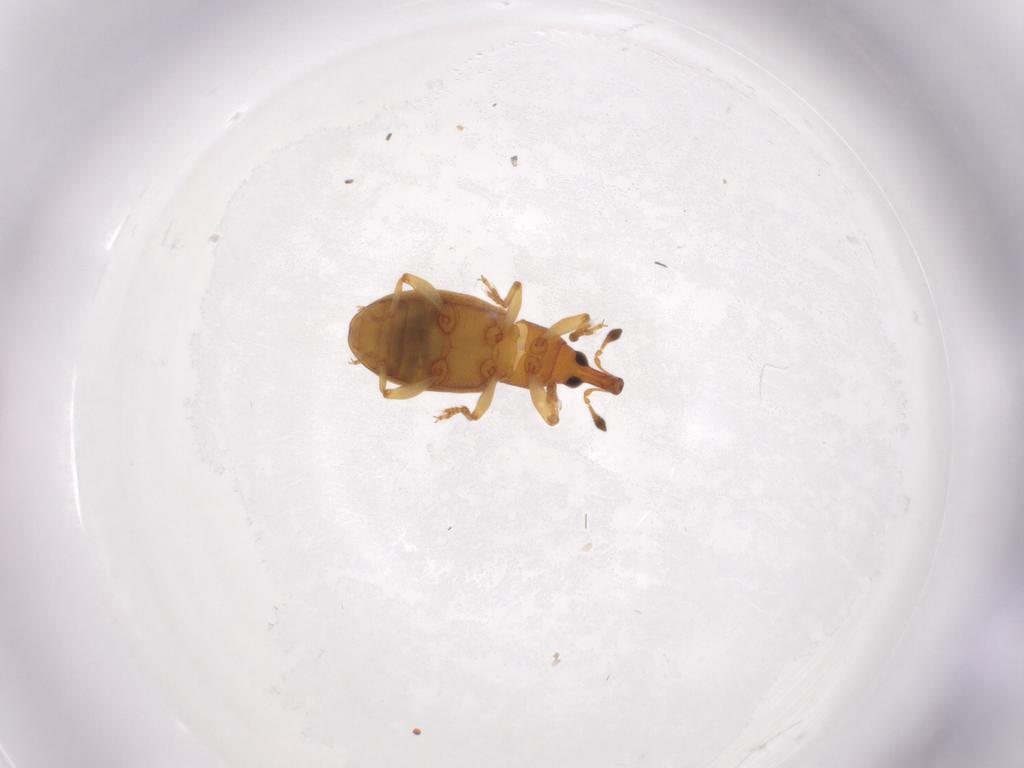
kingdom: Animalia
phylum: Arthropoda
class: Insecta
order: Coleoptera
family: Curculionidae
